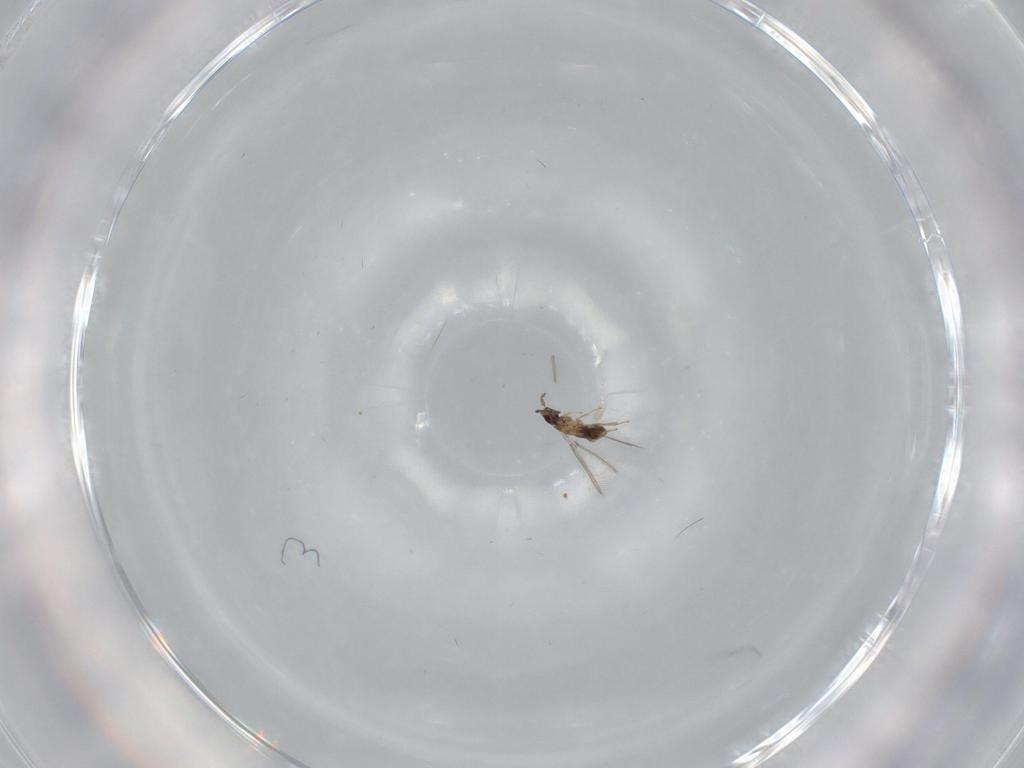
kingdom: Animalia
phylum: Arthropoda
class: Insecta
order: Hymenoptera
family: Mymaridae
